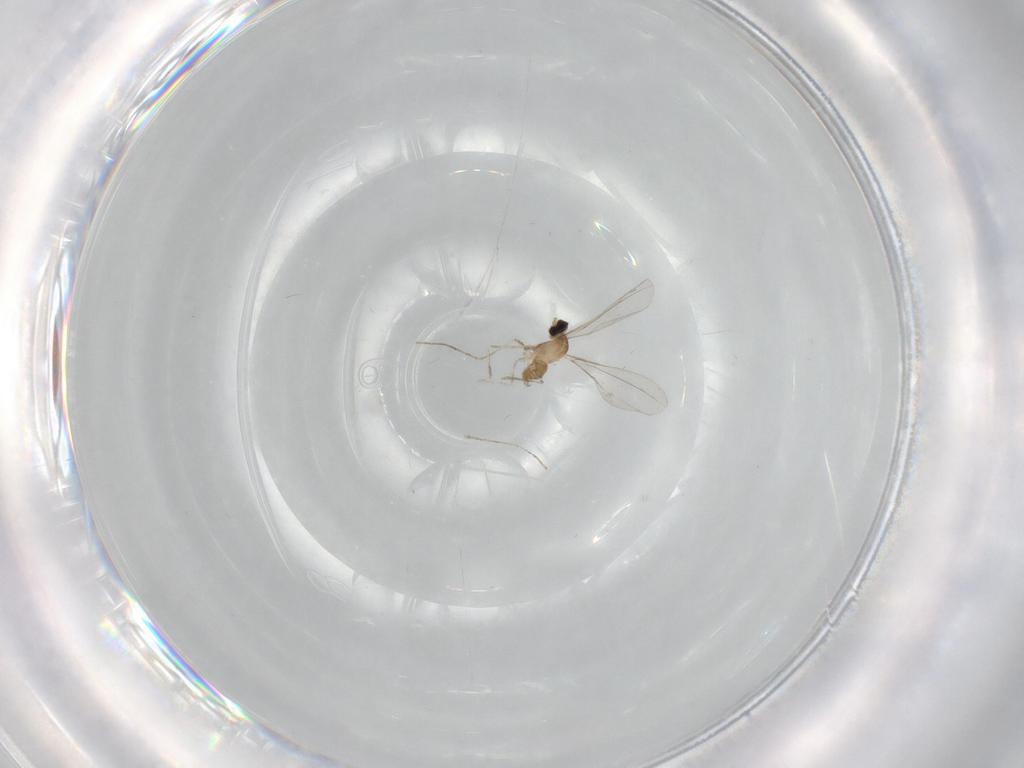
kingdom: Animalia
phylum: Arthropoda
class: Insecta
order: Diptera
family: Cecidomyiidae
